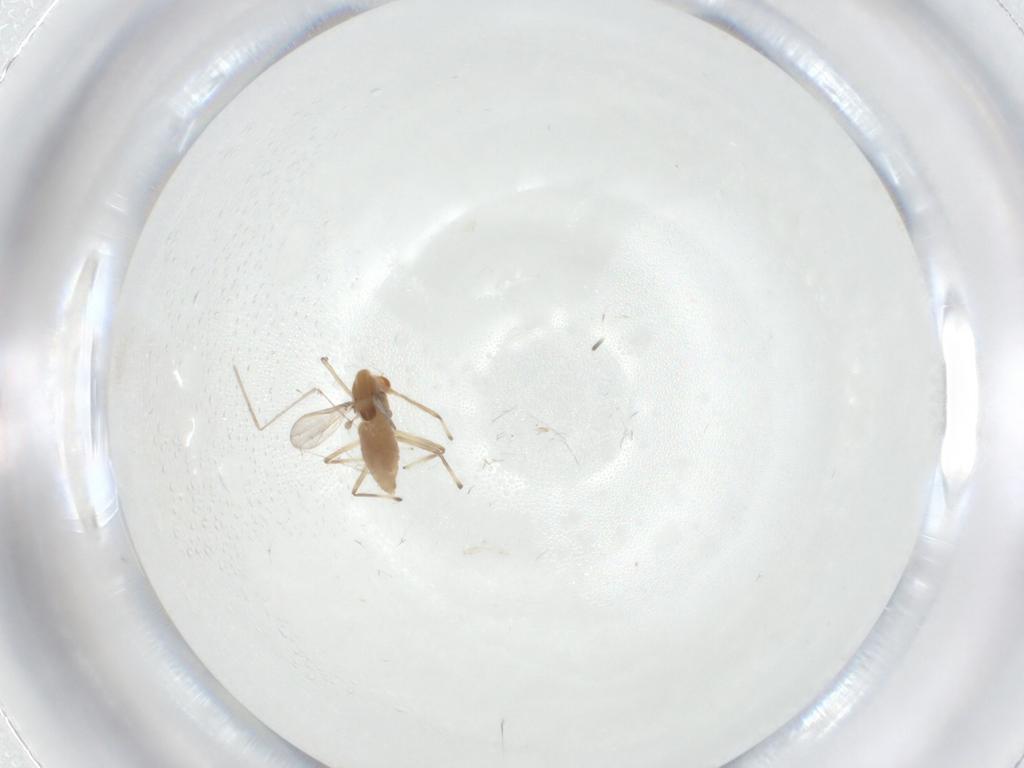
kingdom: Animalia
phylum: Arthropoda
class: Insecta
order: Diptera
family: Chironomidae
